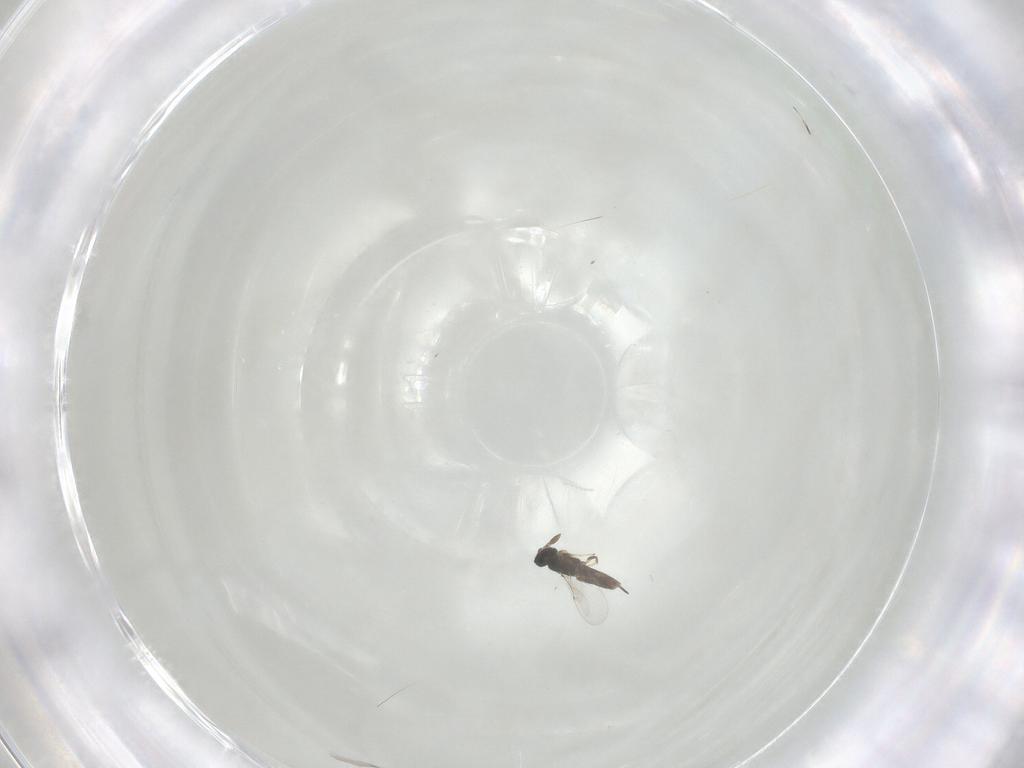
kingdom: Animalia
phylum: Arthropoda
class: Insecta
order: Hymenoptera
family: Encyrtidae
